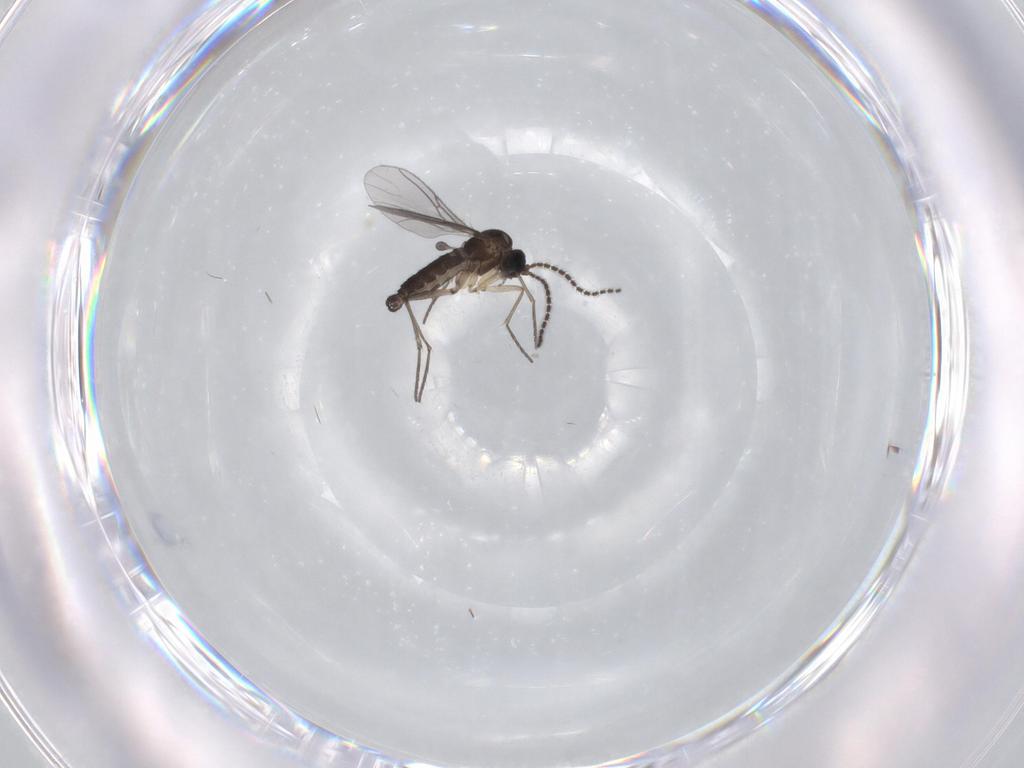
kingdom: Animalia
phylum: Arthropoda
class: Insecta
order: Diptera
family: Sciaridae
